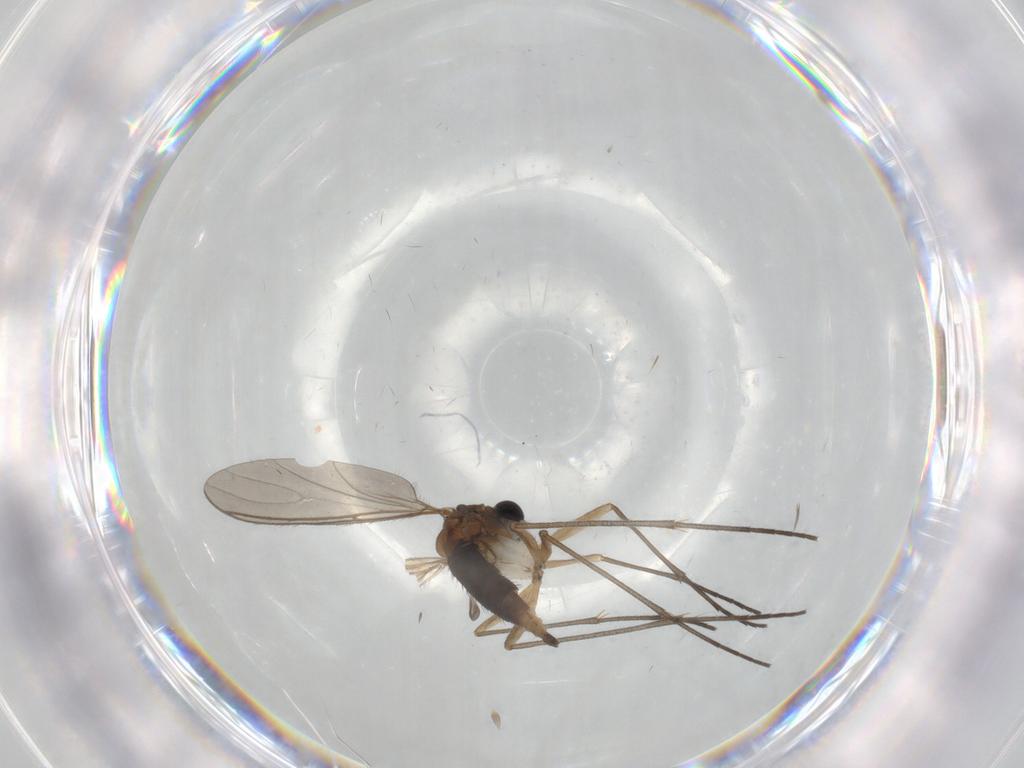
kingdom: Animalia
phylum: Arthropoda
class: Insecta
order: Diptera
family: Sciaridae
